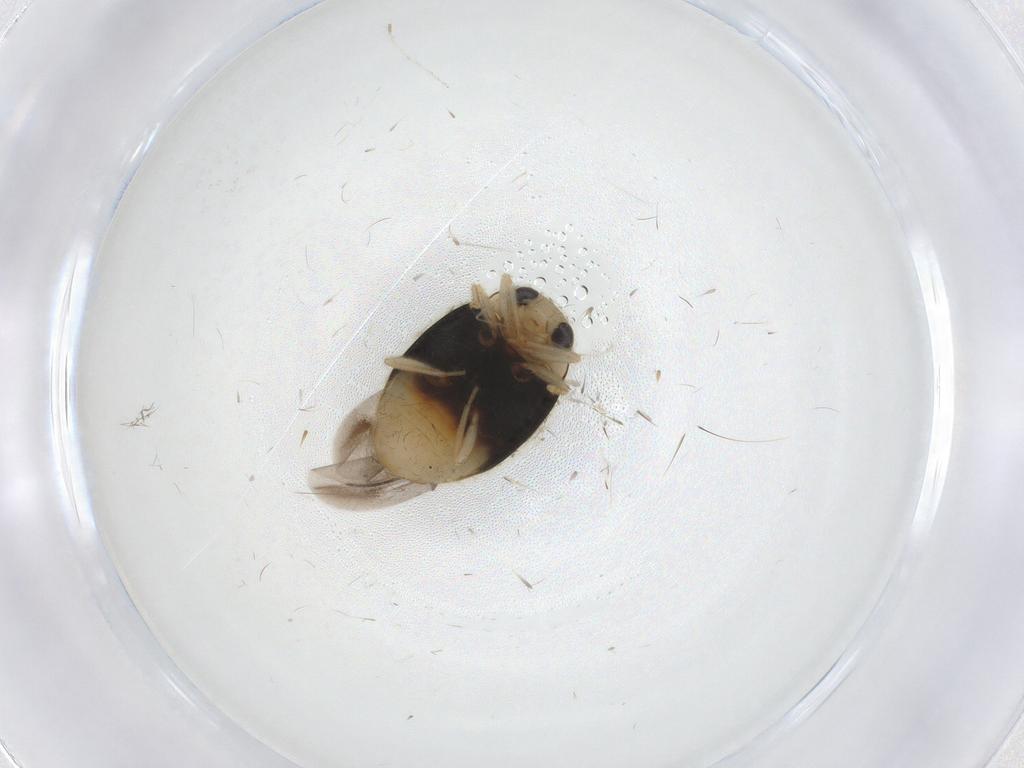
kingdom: Animalia
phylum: Arthropoda
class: Insecta
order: Coleoptera
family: Coccinellidae
